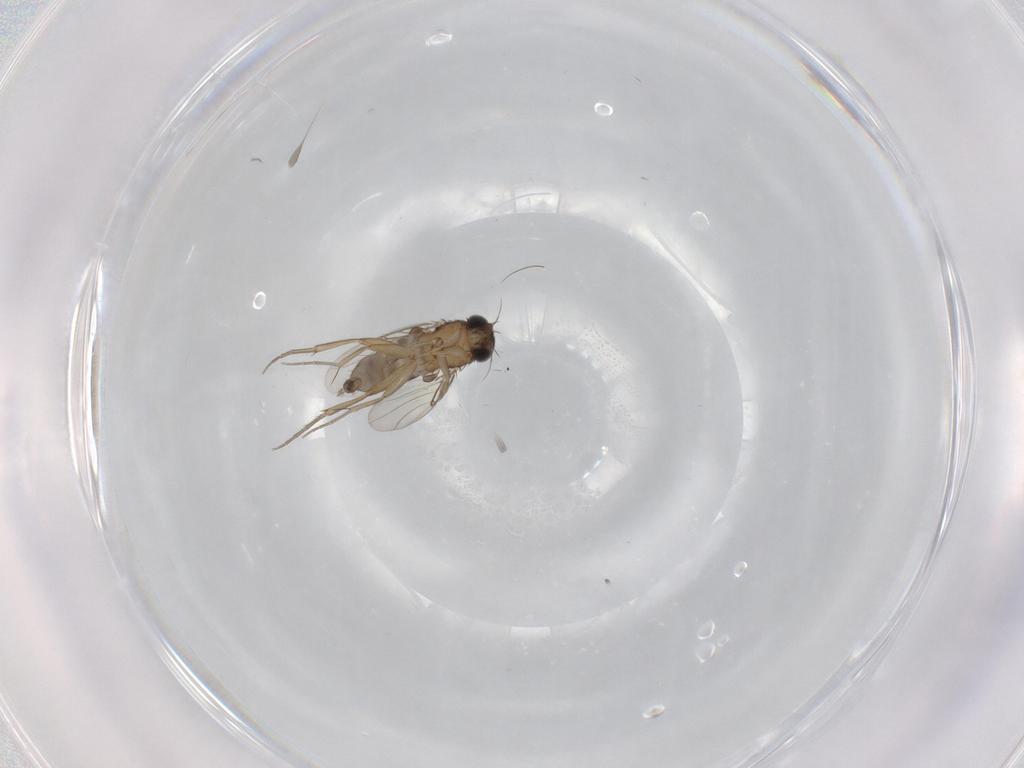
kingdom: Animalia
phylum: Arthropoda
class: Insecta
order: Diptera
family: Phoridae
